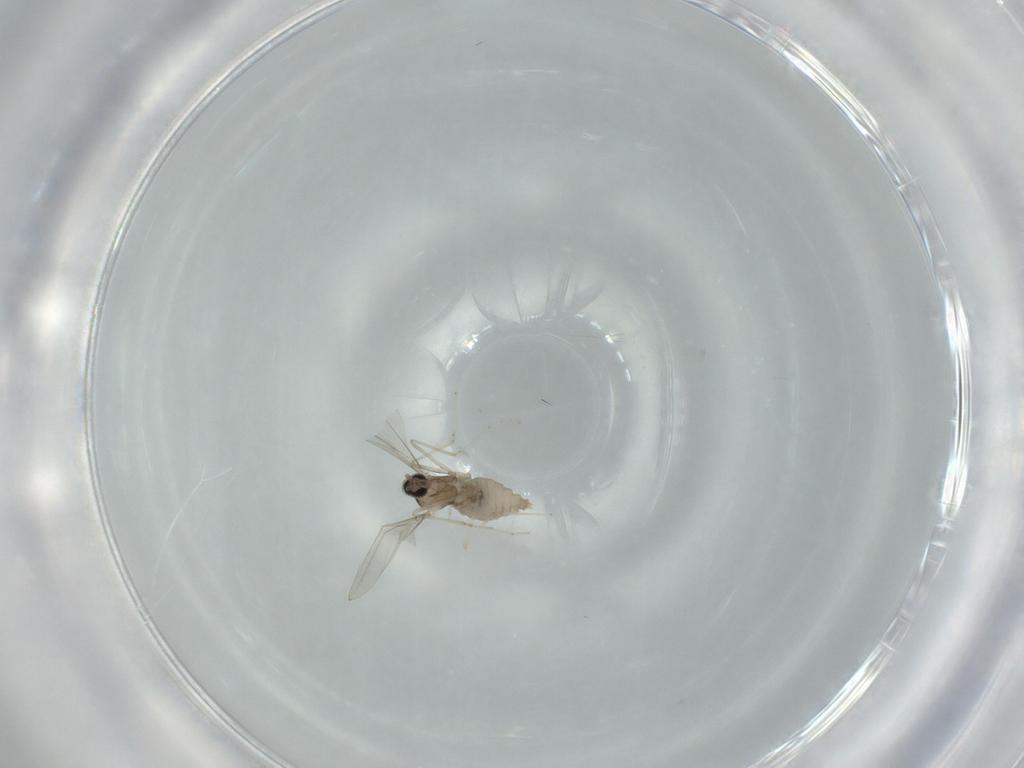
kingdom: Animalia
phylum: Arthropoda
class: Insecta
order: Diptera
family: Cecidomyiidae
